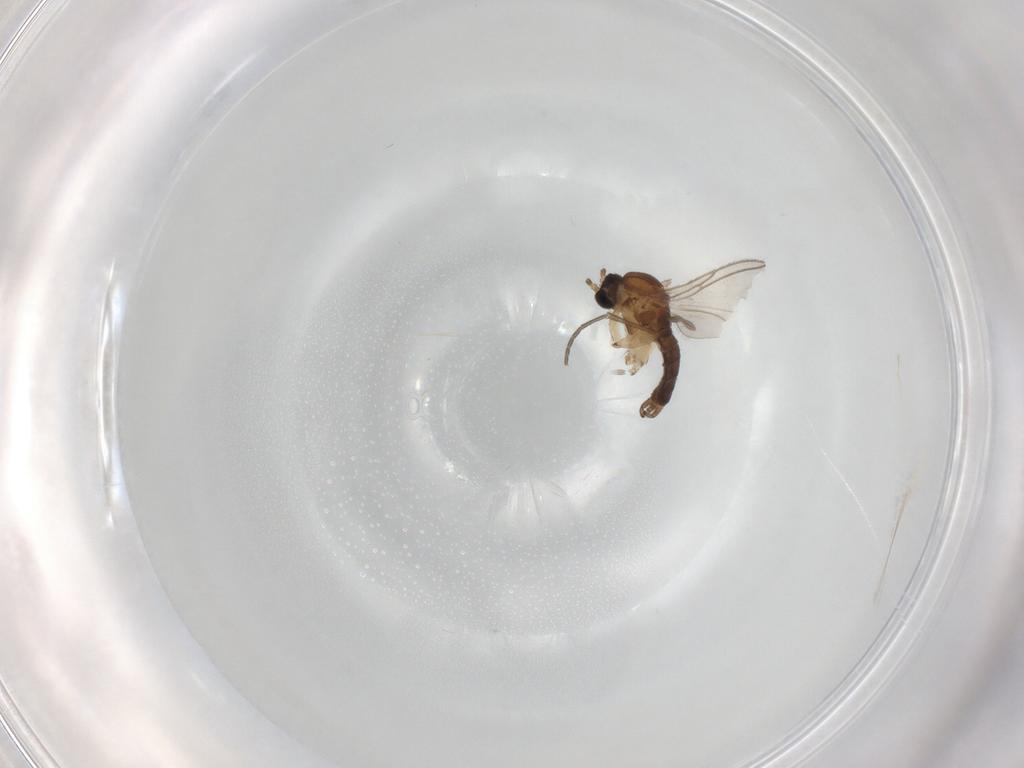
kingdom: Animalia
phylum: Arthropoda
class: Insecta
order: Diptera
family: Sciaridae
